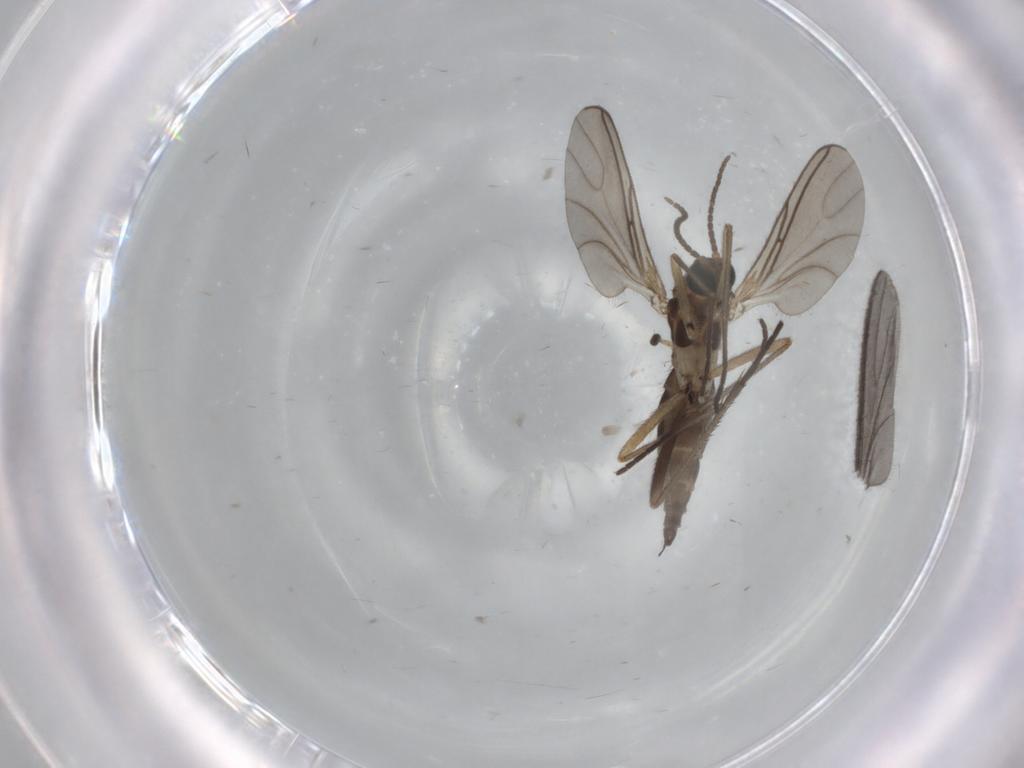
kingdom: Animalia
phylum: Arthropoda
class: Insecta
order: Diptera
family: Sciaridae
